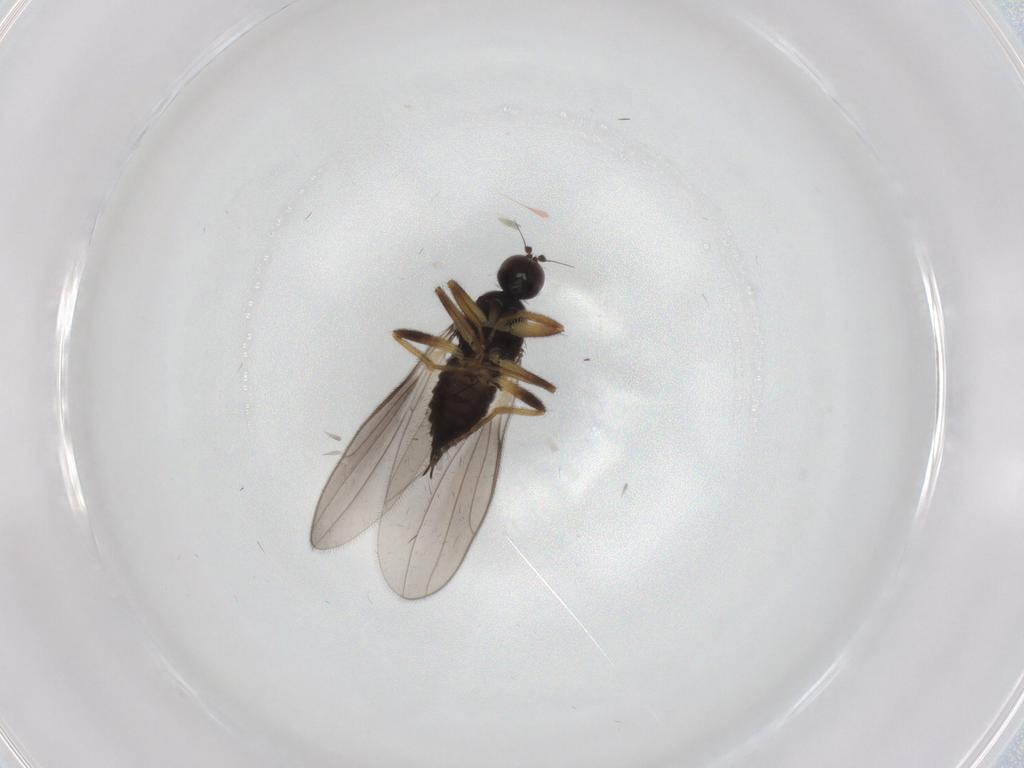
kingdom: Animalia
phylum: Arthropoda
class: Insecta
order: Diptera
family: Hybotidae
